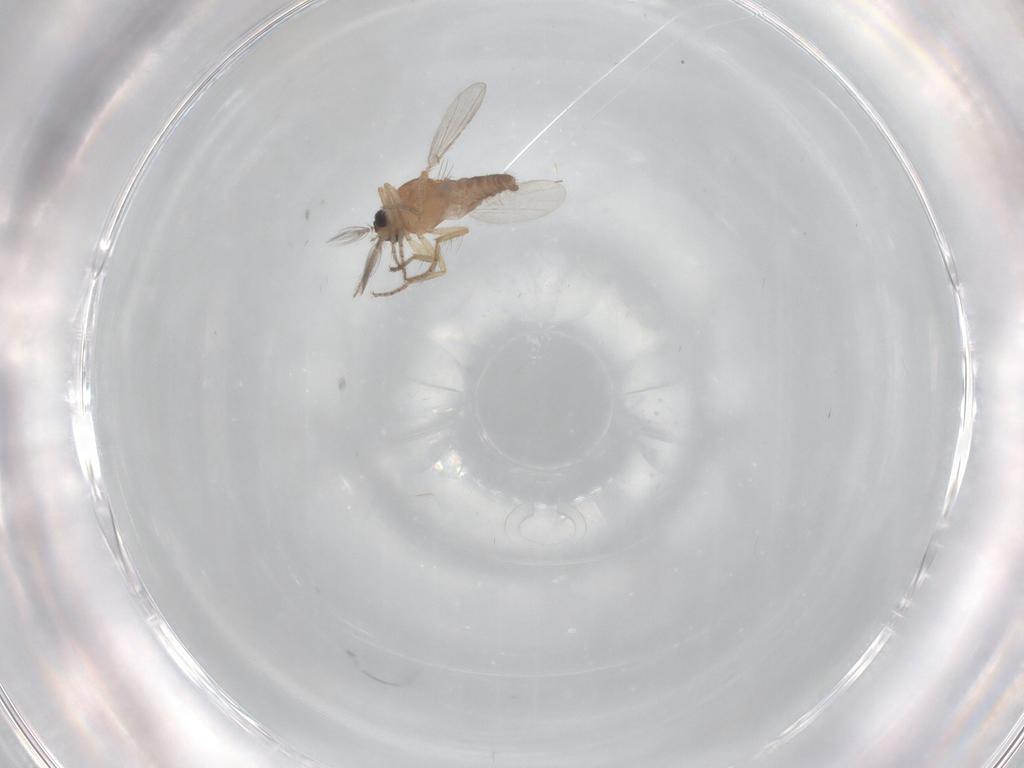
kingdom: Animalia
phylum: Arthropoda
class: Insecta
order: Diptera
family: Ceratopogonidae
